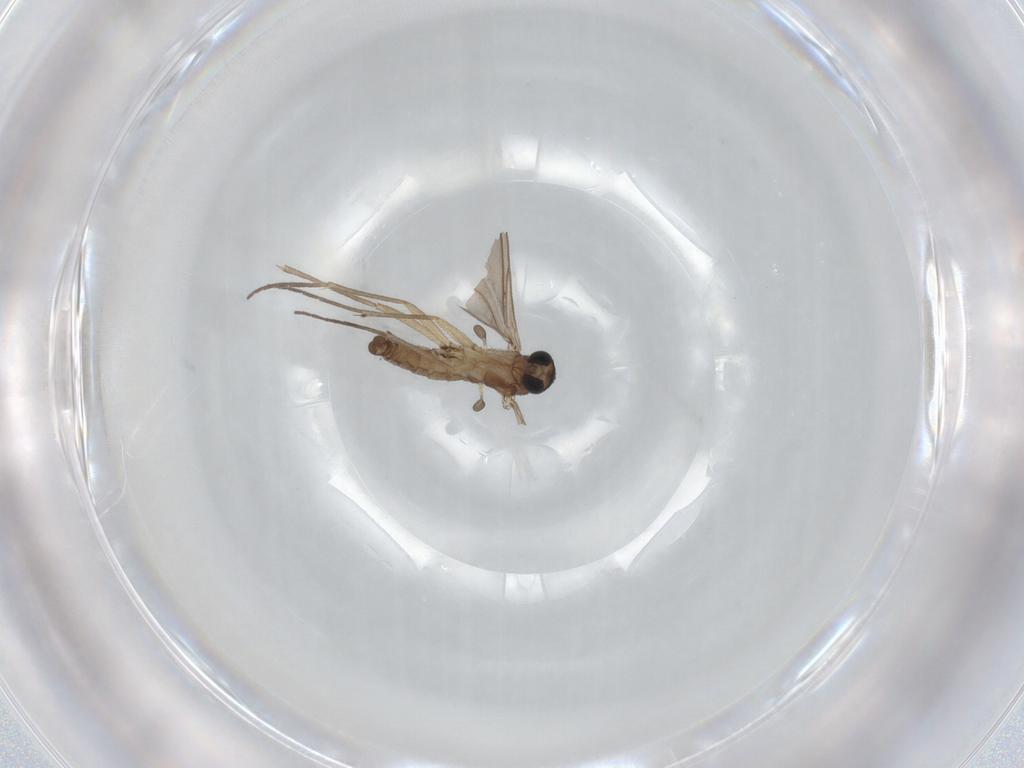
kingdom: Animalia
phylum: Arthropoda
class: Insecta
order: Diptera
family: Sciaridae
